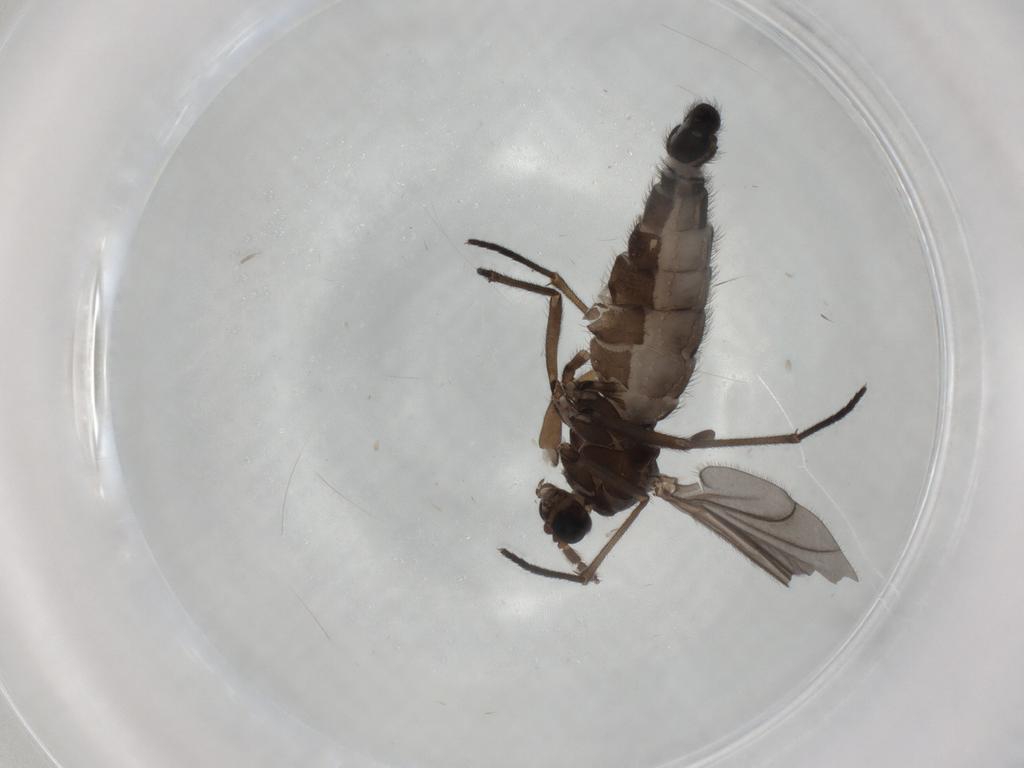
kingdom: Animalia
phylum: Arthropoda
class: Insecta
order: Diptera
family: Sciaridae
